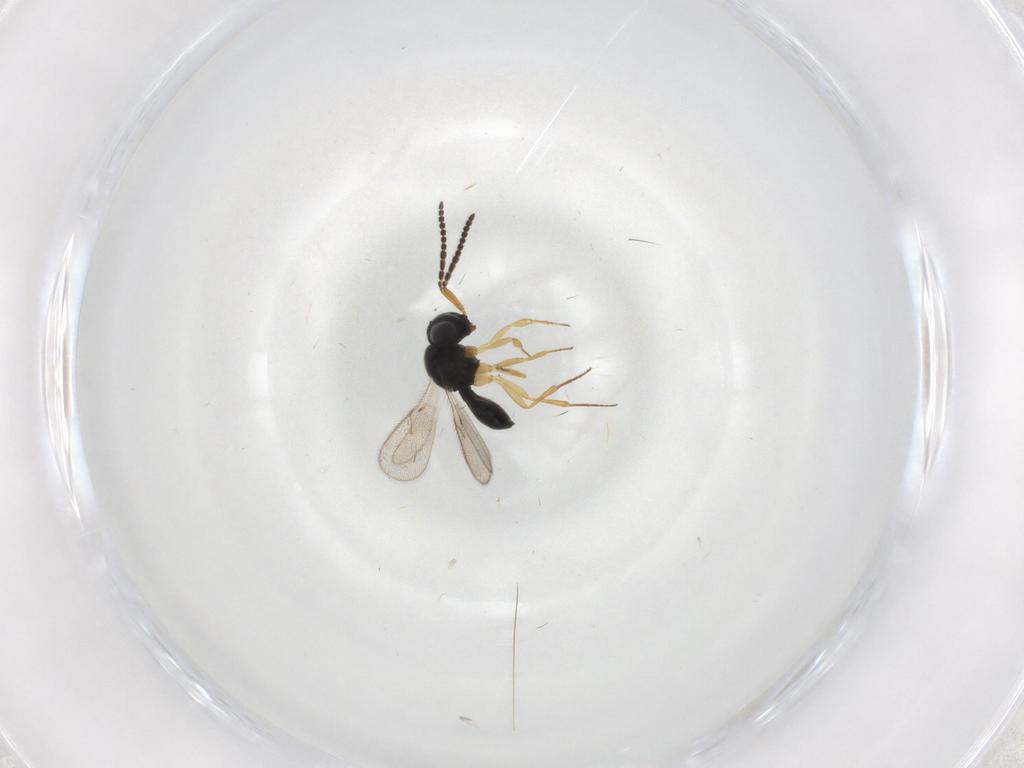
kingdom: Animalia
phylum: Arthropoda
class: Insecta
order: Hymenoptera
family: Scelionidae
